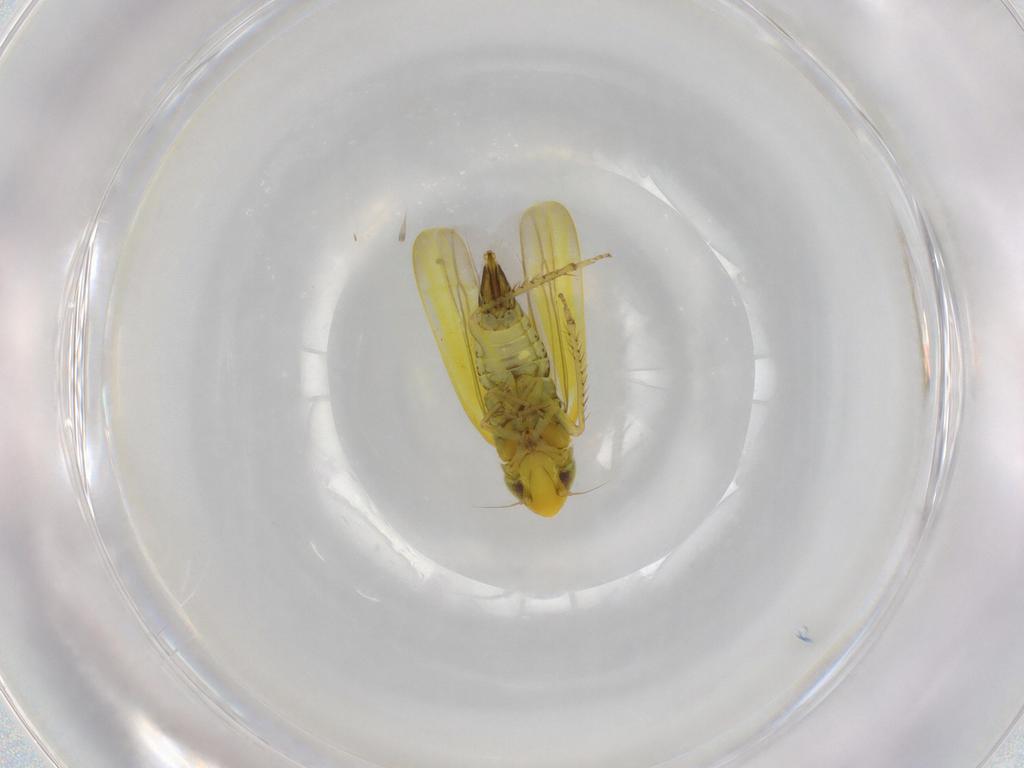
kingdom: Animalia
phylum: Arthropoda
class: Insecta
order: Hemiptera
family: Cicadellidae
